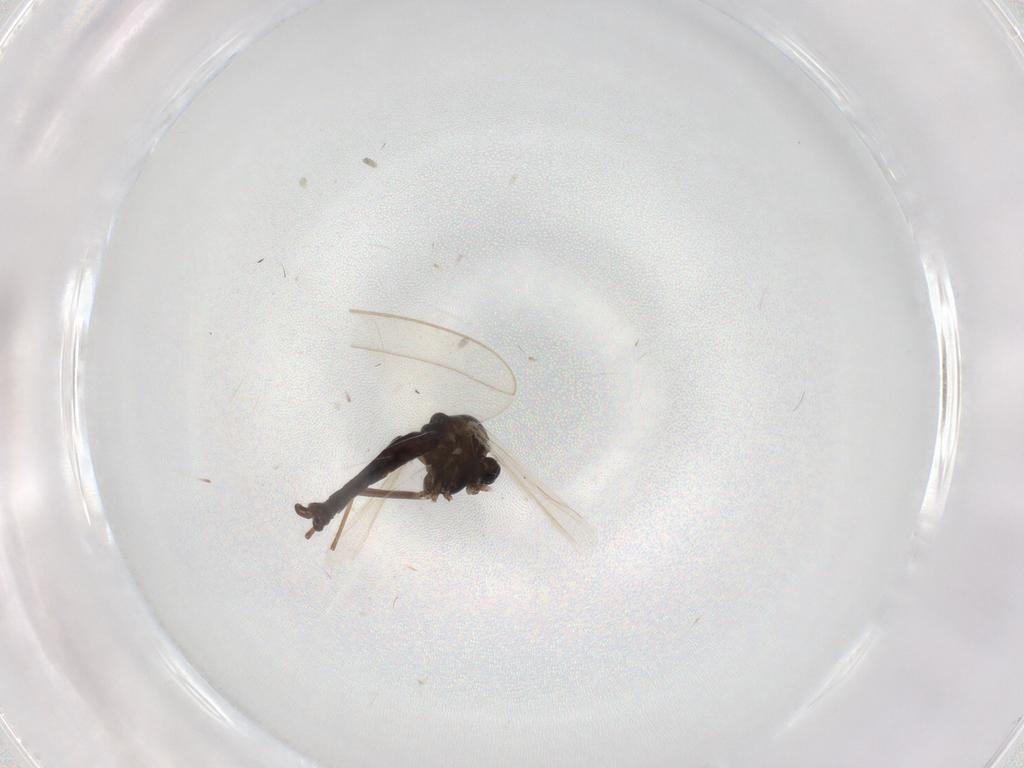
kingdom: Animalia
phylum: Arthropoda
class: Insecta
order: Diptera
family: Cecidomyiidae
